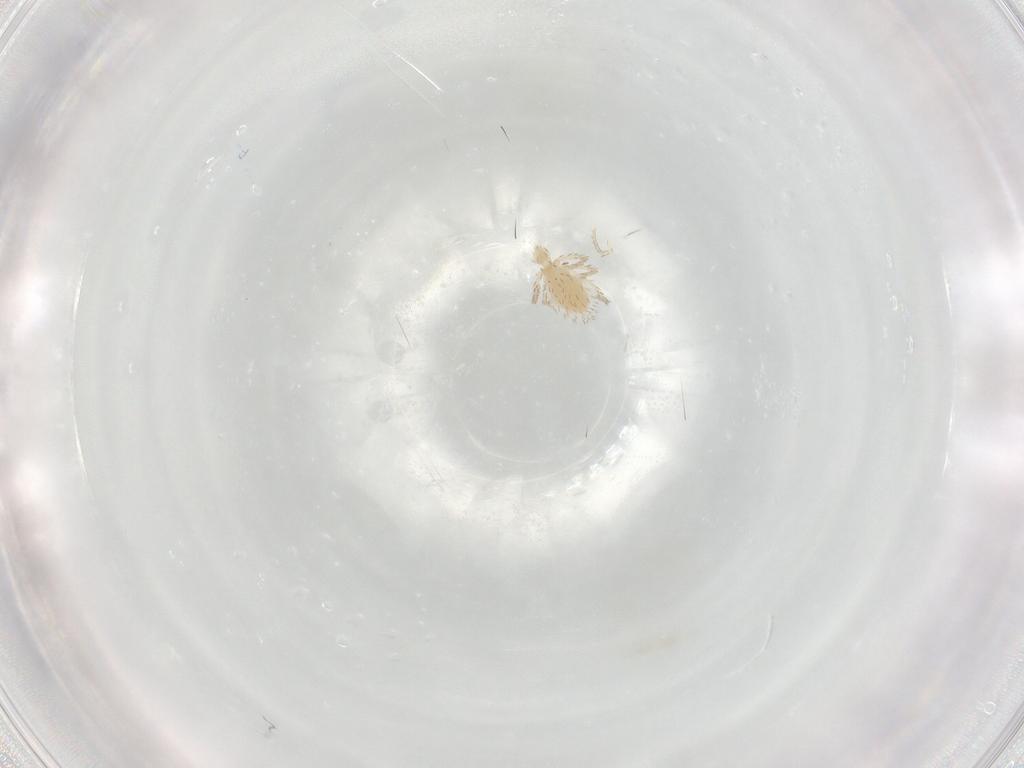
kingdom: Animalia
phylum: Arthropoda
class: Arachnida
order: Trombidiformes
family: Erythraeidae
